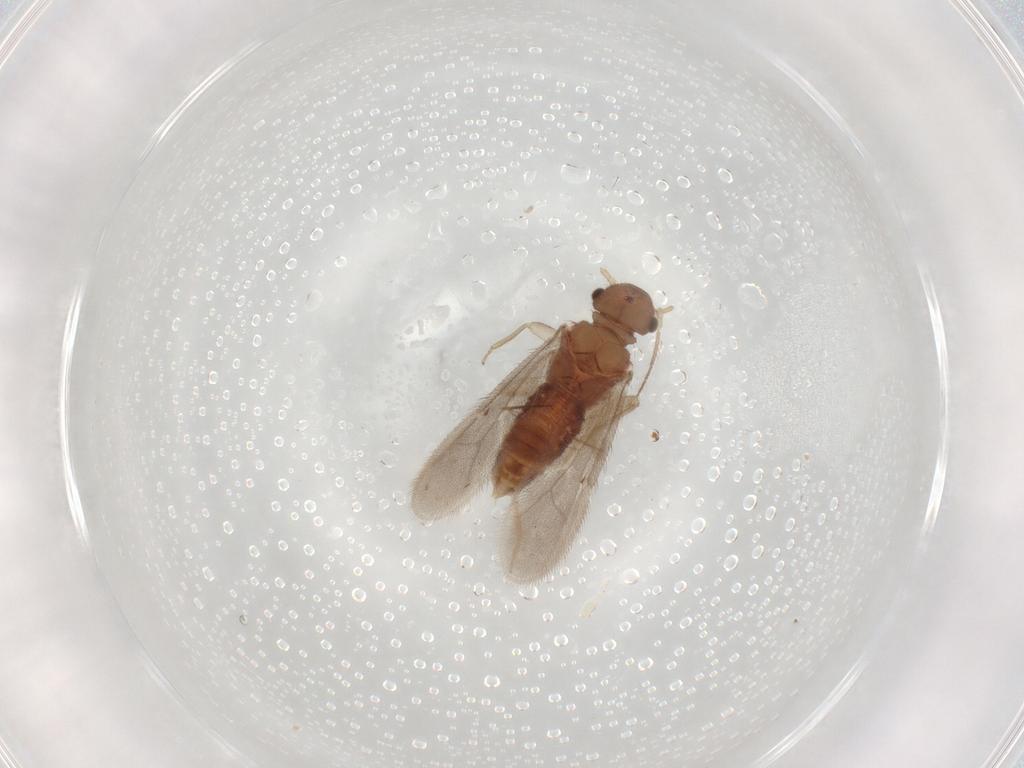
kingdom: Animalia
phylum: Arthropoda
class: Insecta
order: Psocodea
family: Archipsocidae
